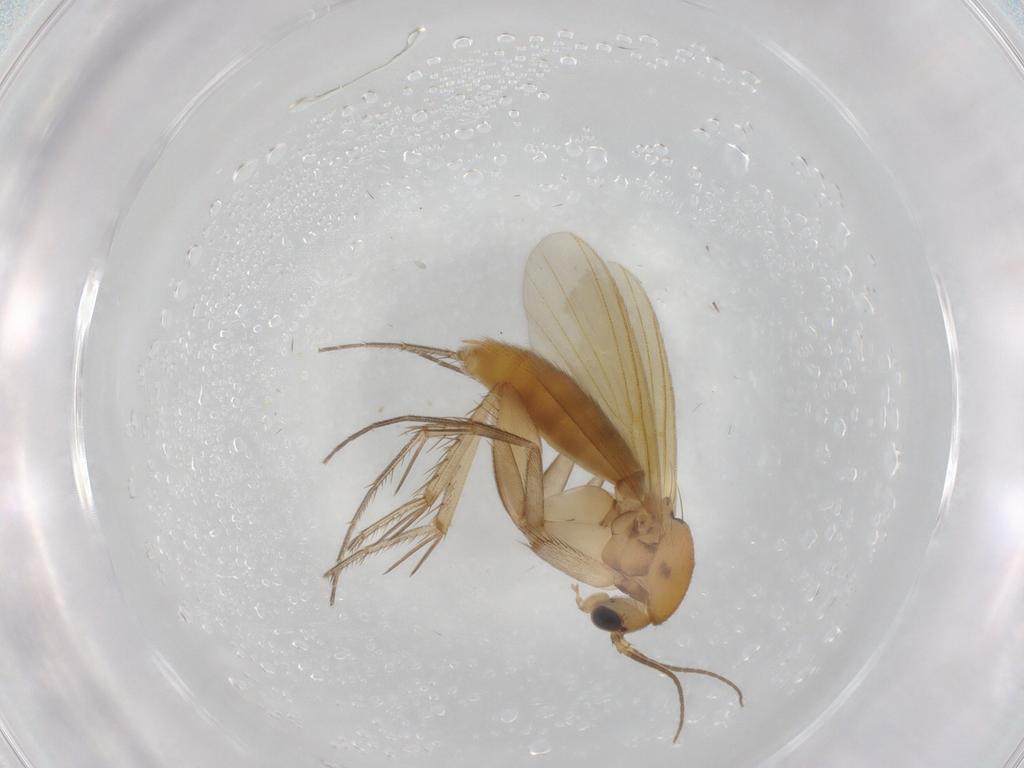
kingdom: Animalia
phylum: Arthropoda
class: Insecta
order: Diptera
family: Mycetophilidae
